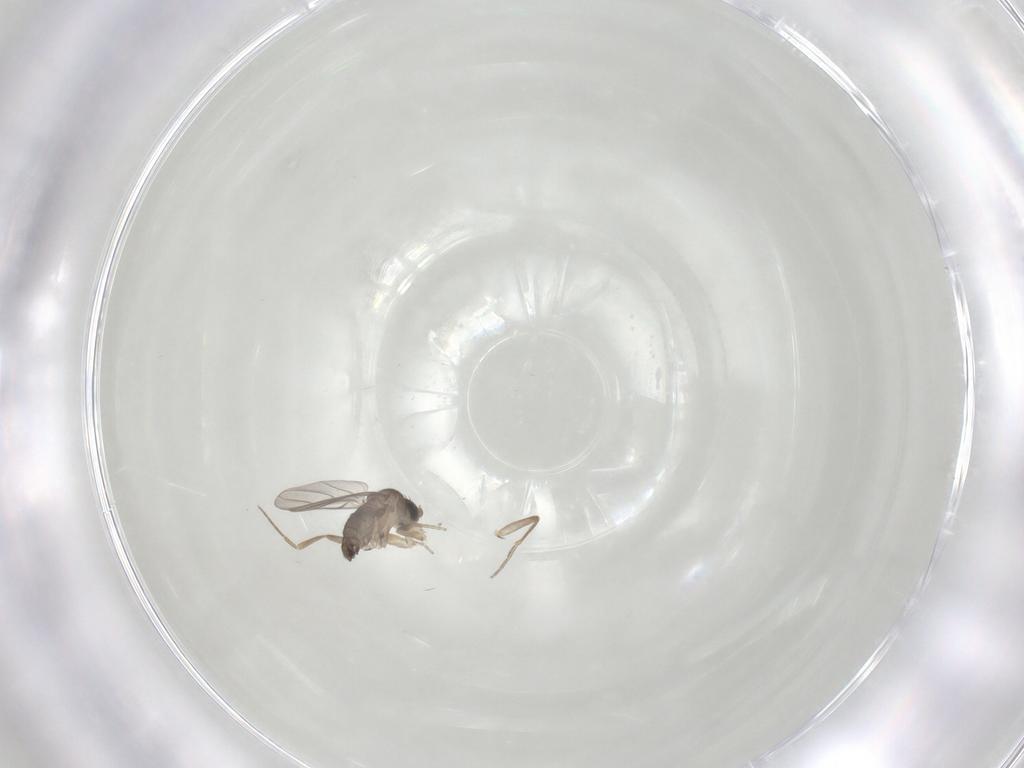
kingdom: Animalia
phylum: Arthropoda
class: Insecta
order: Diptera
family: Phoridae
